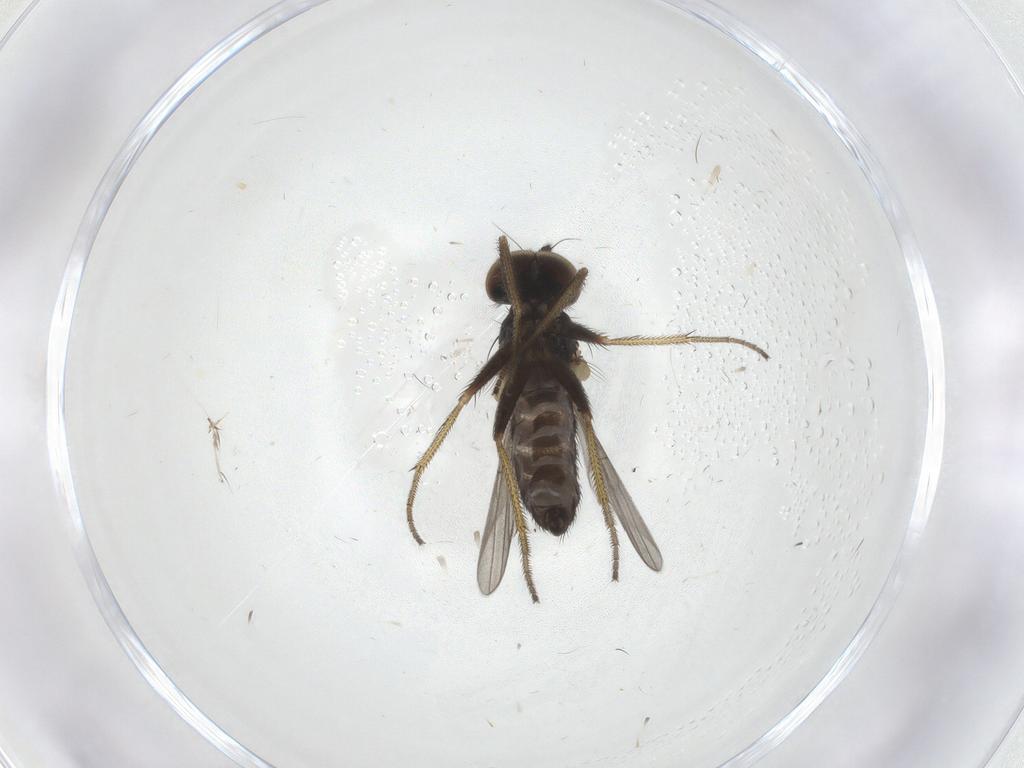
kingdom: Animalia
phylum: Arthropoda
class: Insecta
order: Diptera
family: Dolichopodidae
